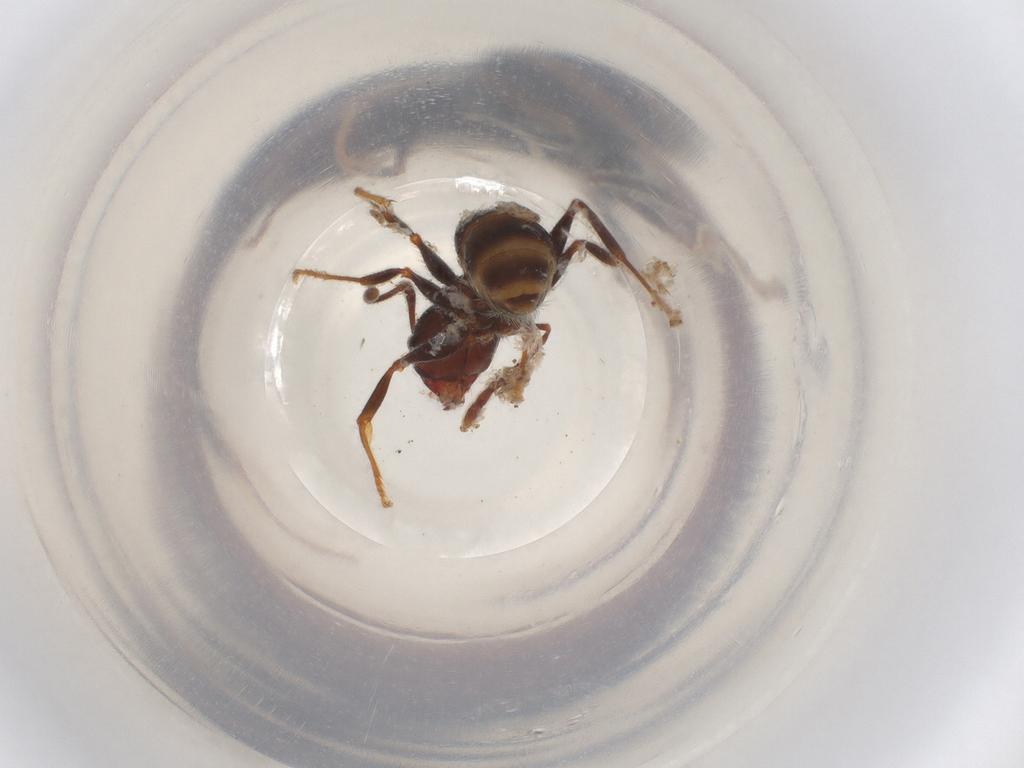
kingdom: Animalia
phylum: Arthropoda
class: Insecta
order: Hymenoptera
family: Formicidae
